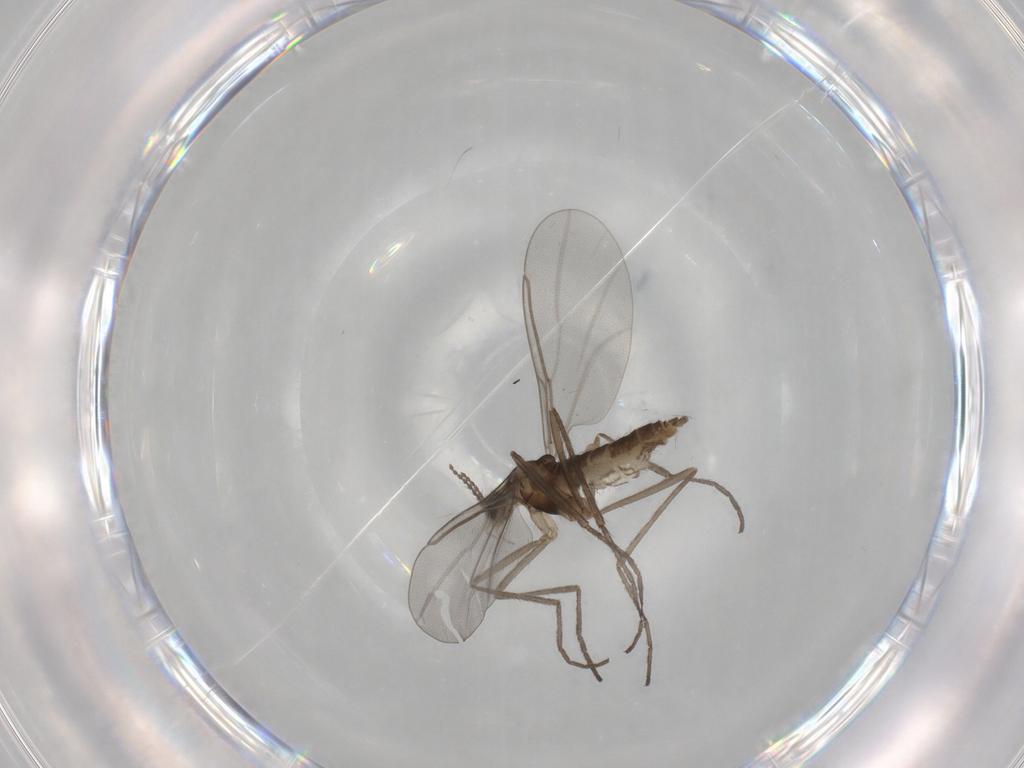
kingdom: Animalia
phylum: Arthropoda
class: Insecta
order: Diptera
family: Cecidomyiidae
